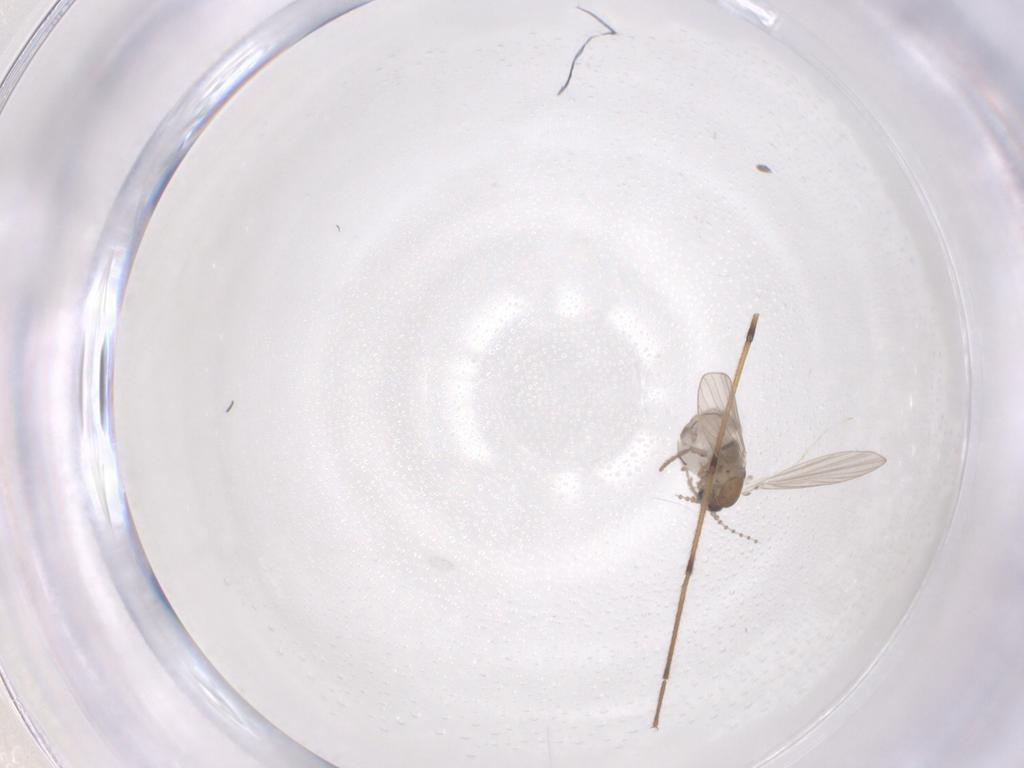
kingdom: Animalia
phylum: Arthropoda
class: Insecta
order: Diptera
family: Psychodidae
